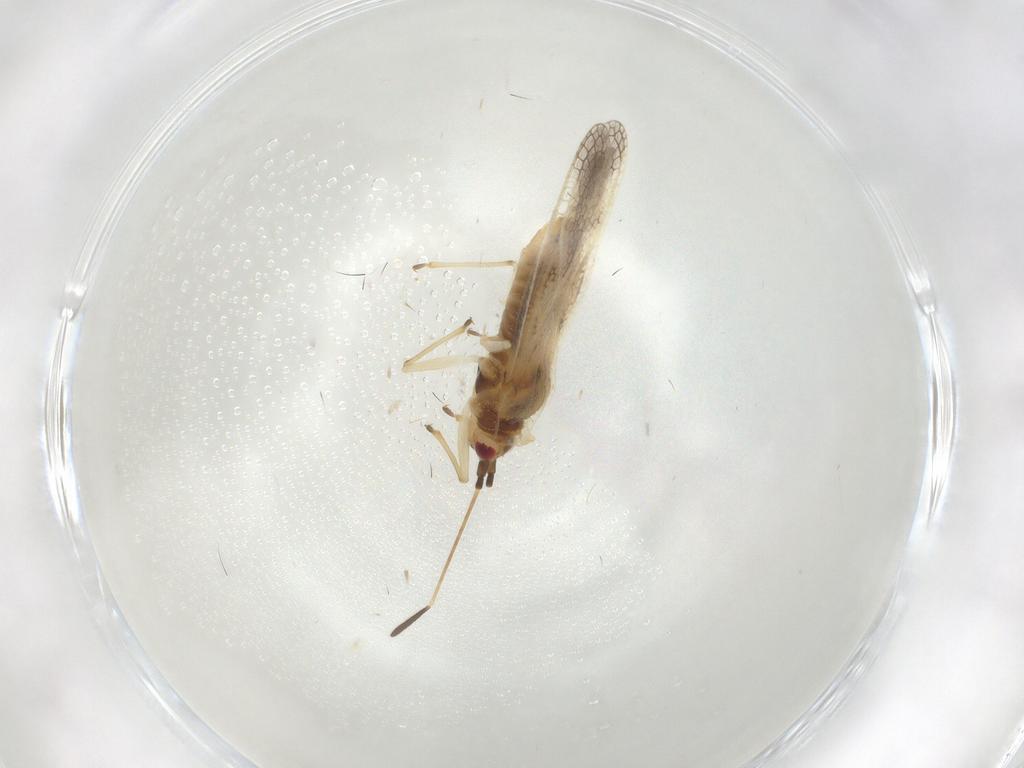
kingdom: Animalia
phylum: Arthropoda
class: Insecta
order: Hemiptera
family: Tingidae
